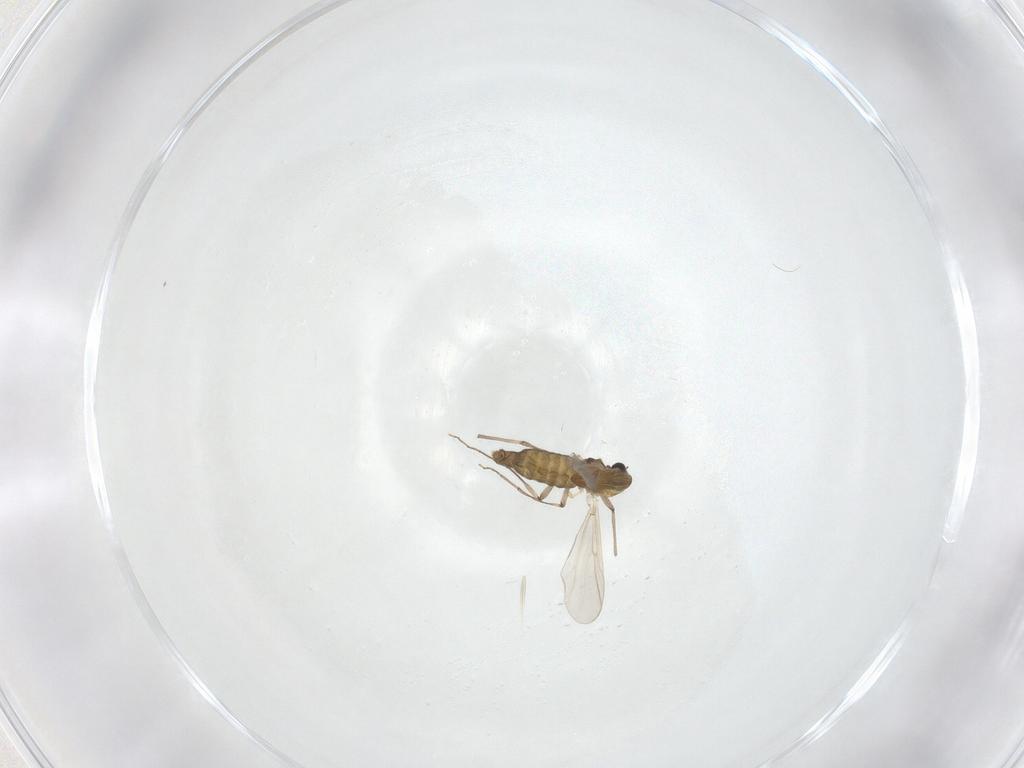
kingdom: Animalia
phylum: Arthropoda
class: Insecta
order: Diptera
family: Chironomidae
